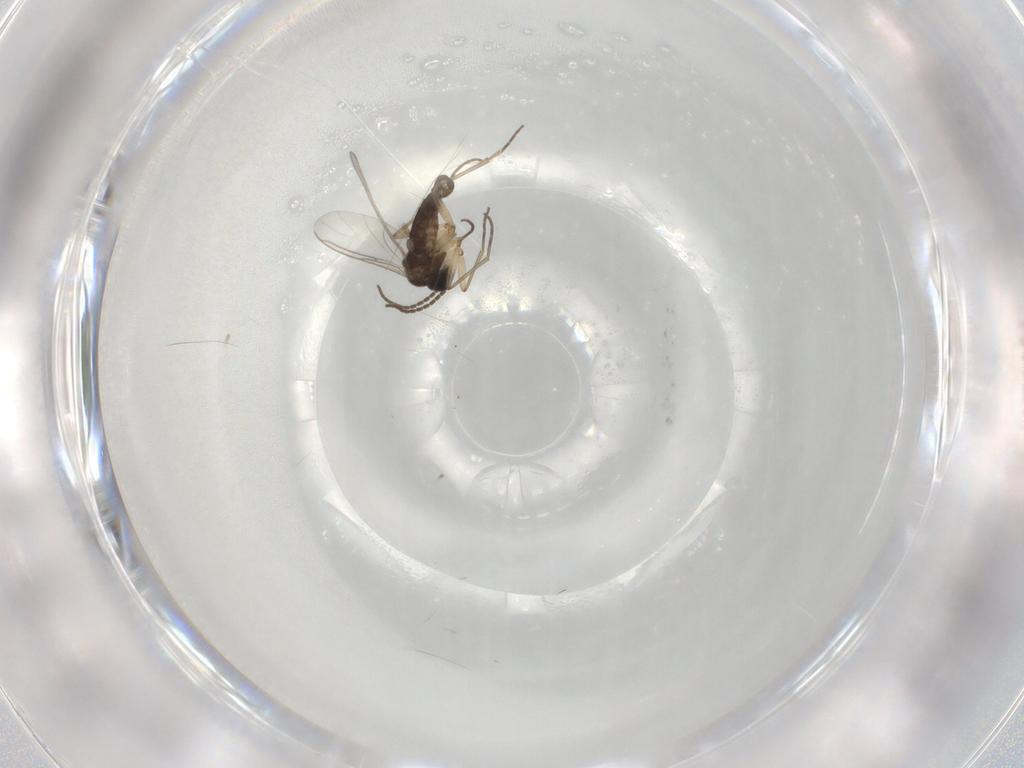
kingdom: Animalia
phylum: Arthropoda
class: Insecta
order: Diptera
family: Sciaridae
